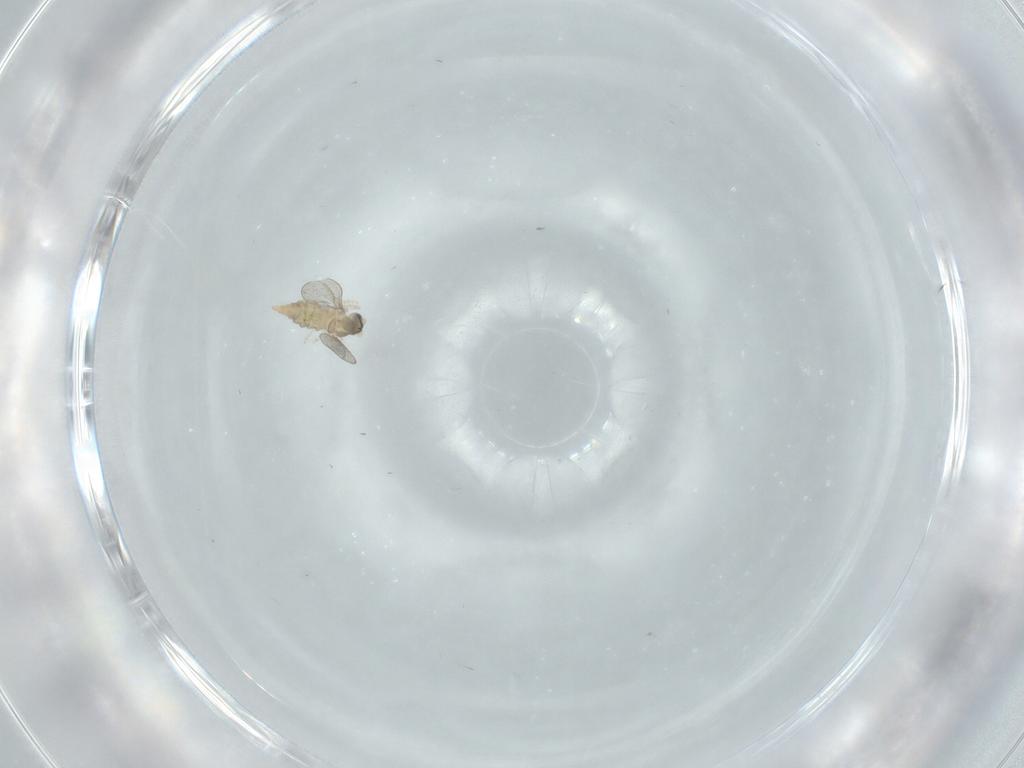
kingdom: Animalia
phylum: Arthropoda
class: Insecta
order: Diptera
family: Cecidomyiidae
